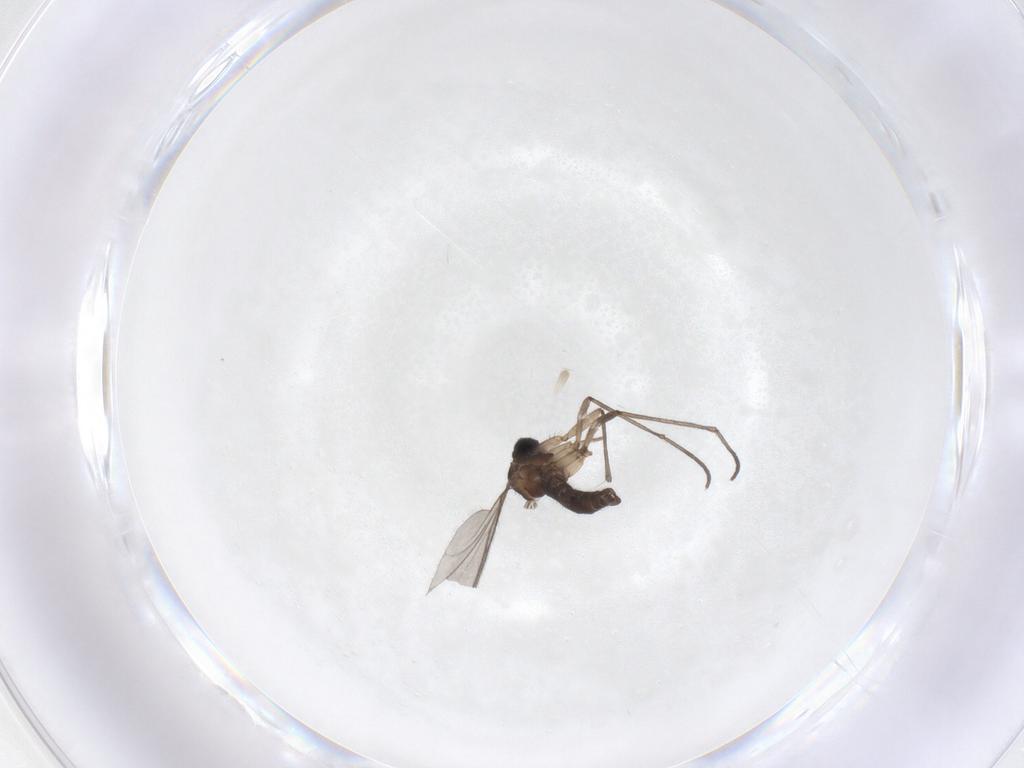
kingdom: Animalia
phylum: Arthropoda
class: Insecta
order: Diptera
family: Sciaridae
